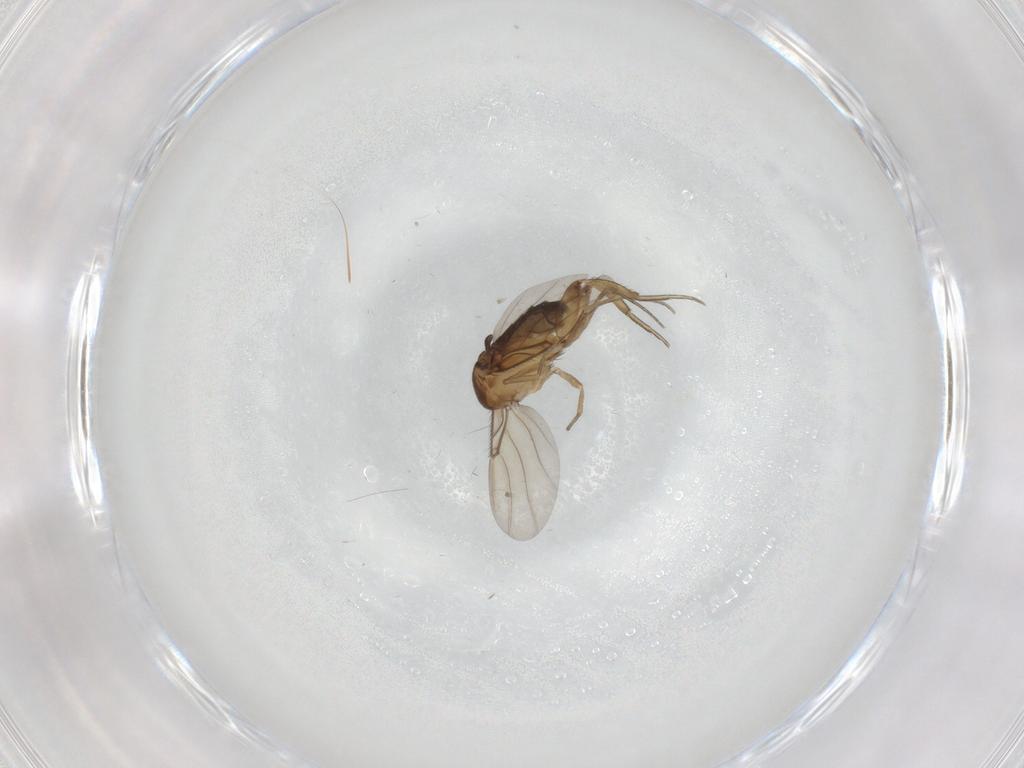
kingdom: Animalia
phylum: Arthropoda
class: Insecta
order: Diptera
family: Phoridae
